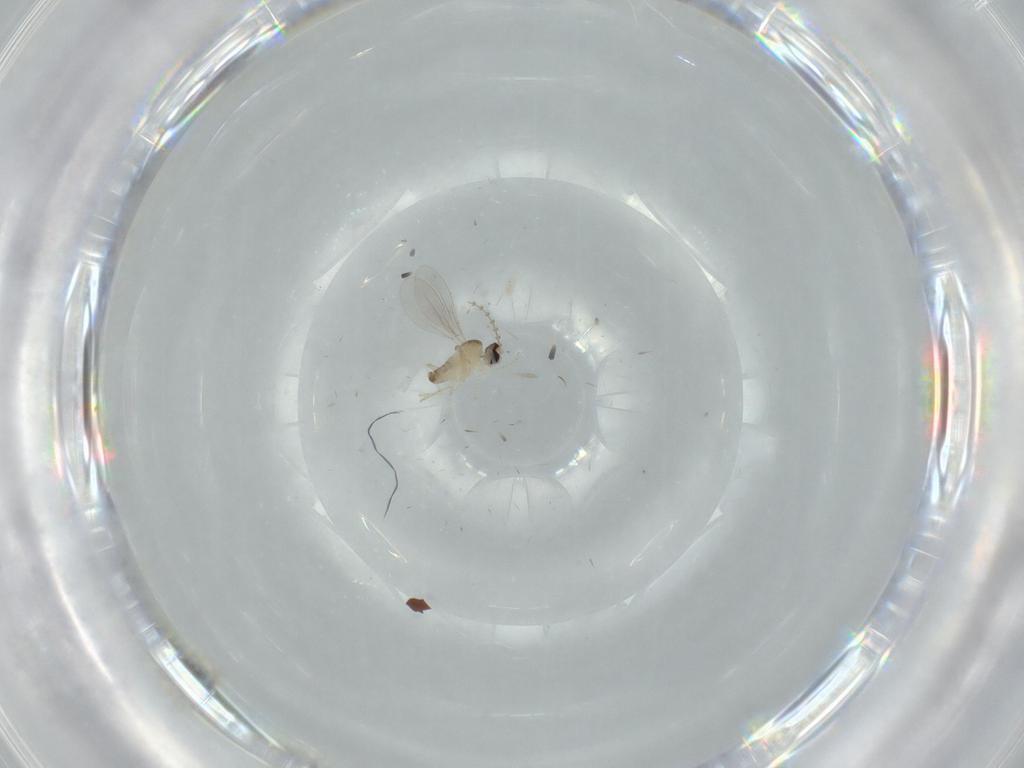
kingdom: Animalia
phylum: Arthropoda
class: Insecta
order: Diptera
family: Cecidomyiidae
